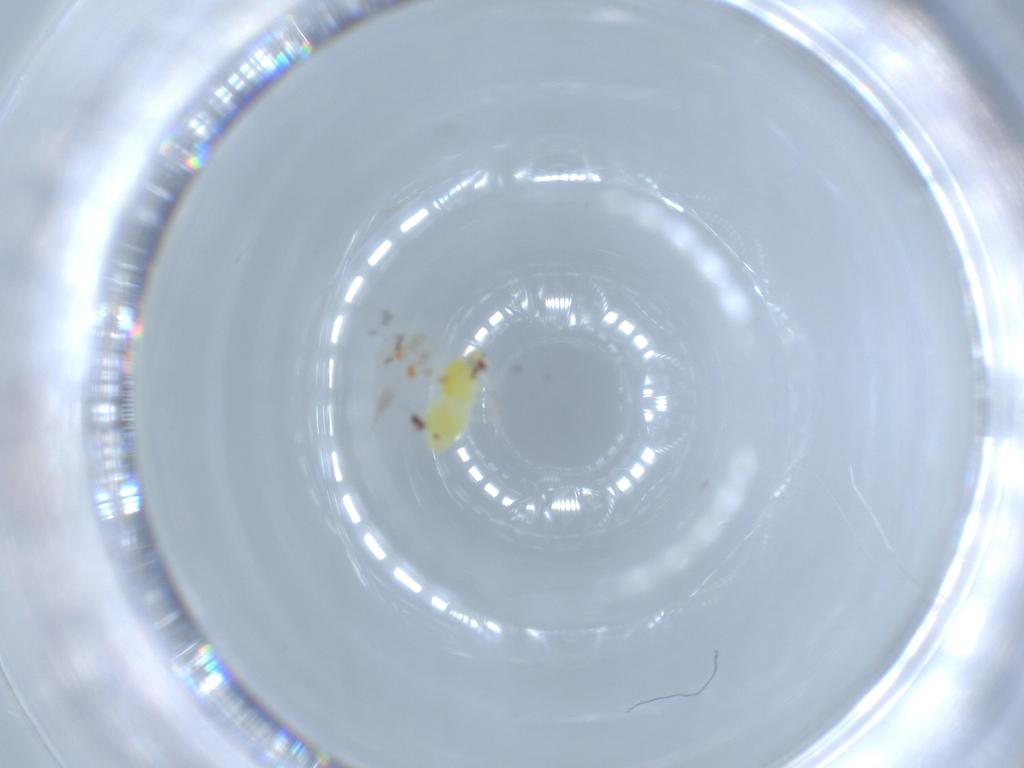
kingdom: Animalia
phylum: Arthropoda
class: Insecta
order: Hemiptera
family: Aleyrodidae
